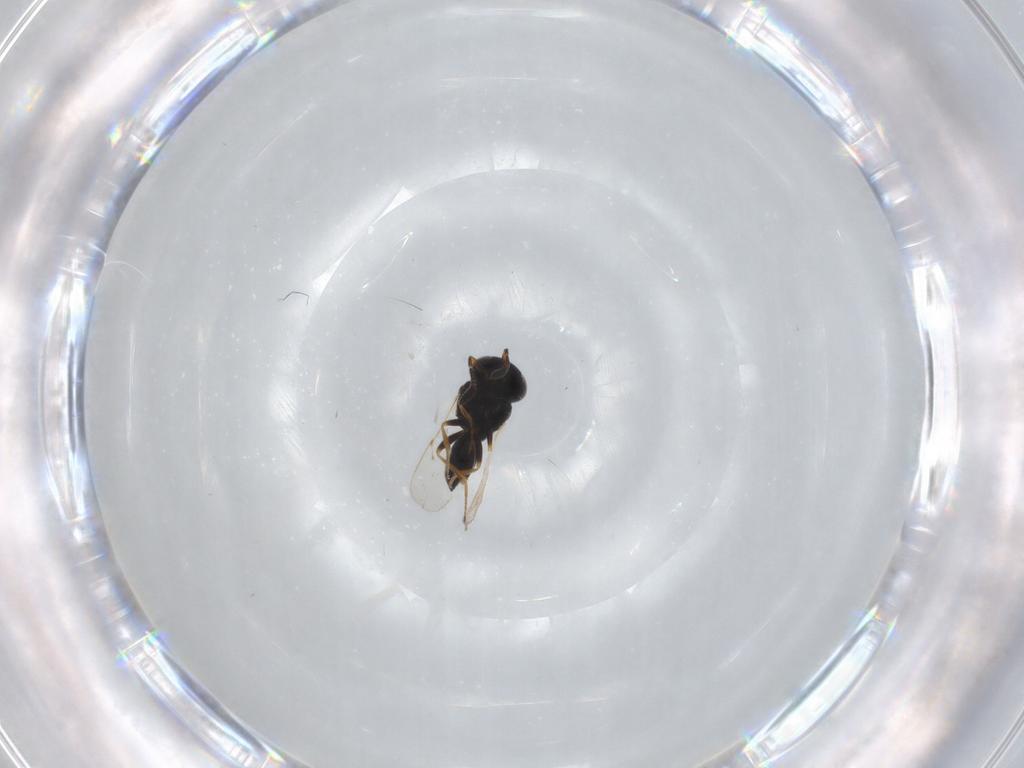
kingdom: Animalia
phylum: Arthropoda
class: Insecta
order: Coleoptera
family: Curculionidae
